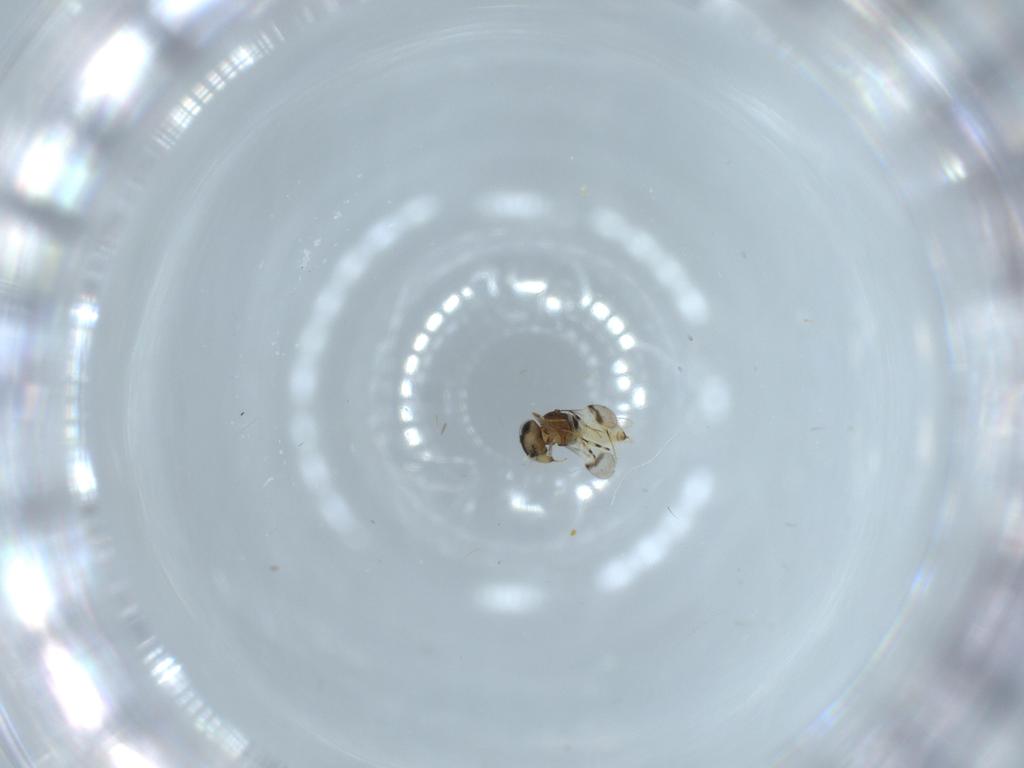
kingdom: Animalia
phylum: Arthropoda
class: Insecta
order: Hymenoptera
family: Scelionidae
